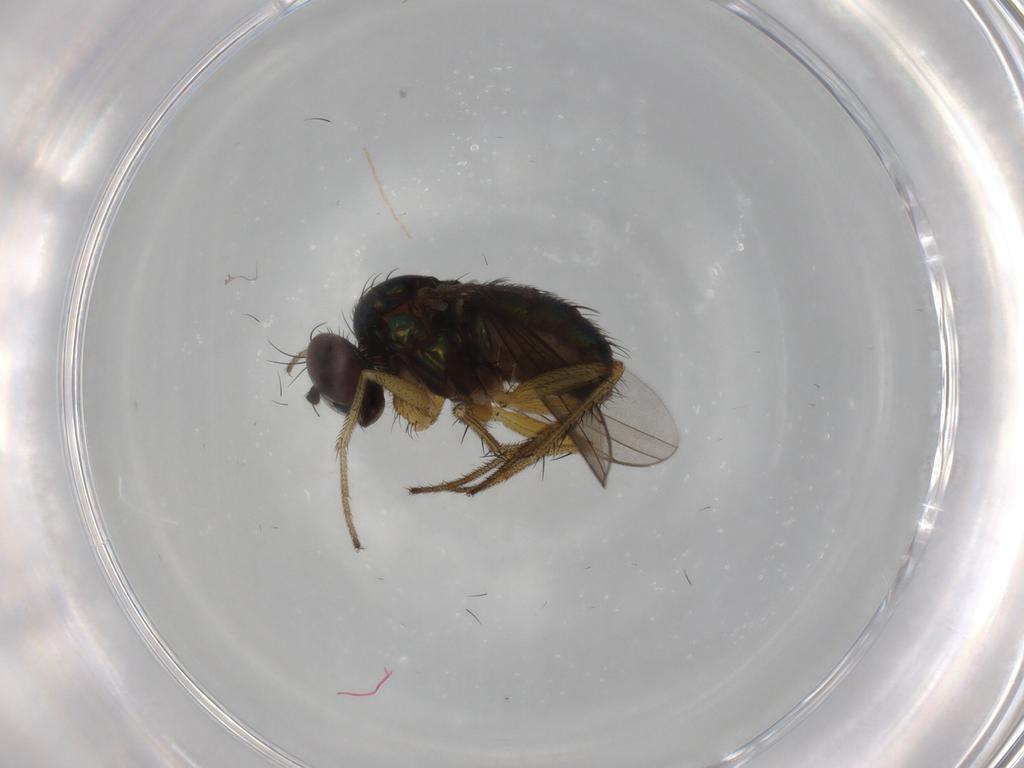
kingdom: Animalia
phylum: Arthropoda
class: Insecta
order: Diptera
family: Dolichopodidae
